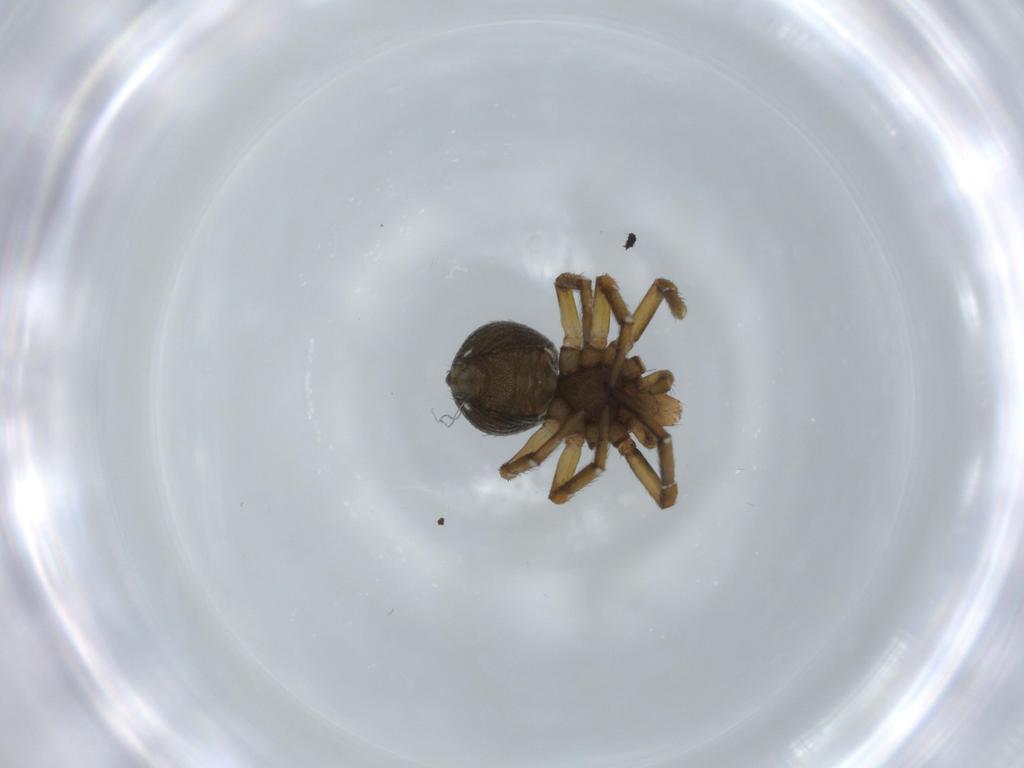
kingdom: Animalia
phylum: Arthropoda
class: Arachnida
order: Araneae
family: Thomisidae
